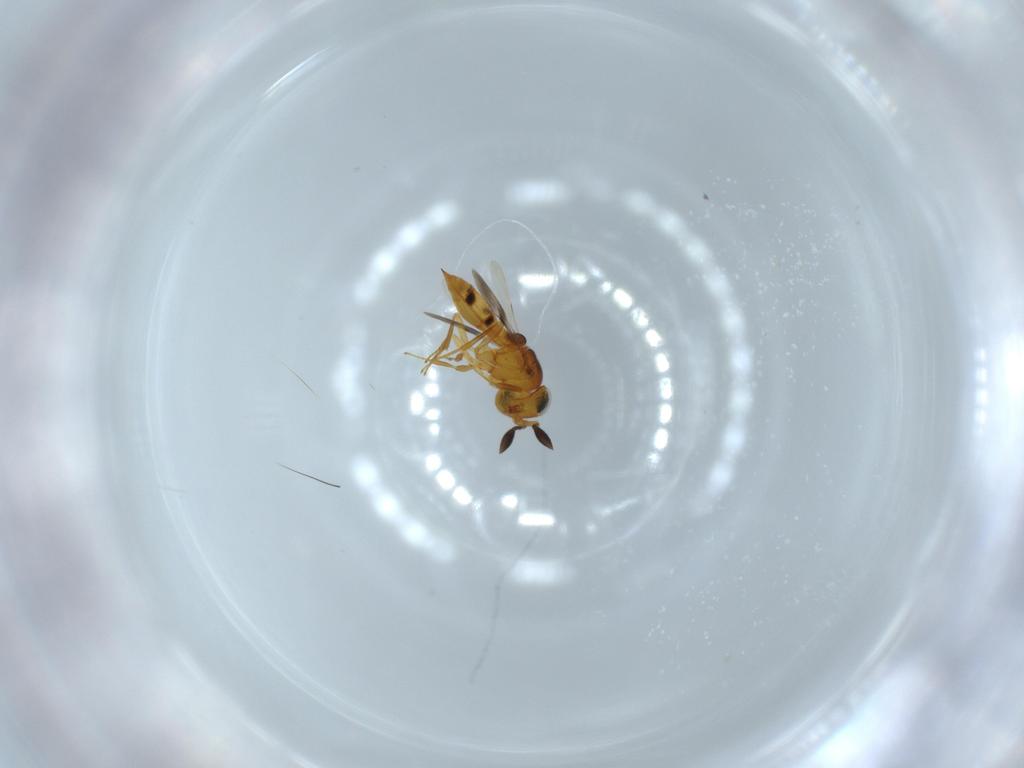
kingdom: Animalia
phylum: Arthropoda
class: Insecta
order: Hymenoptera
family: Scelionidae
